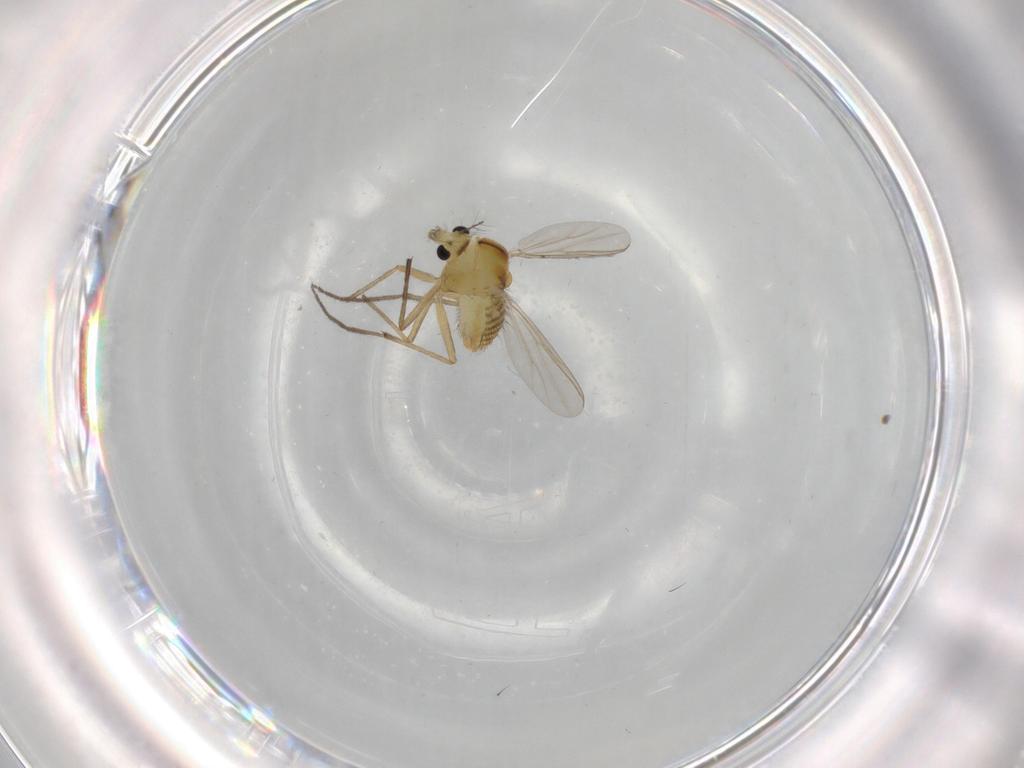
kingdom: Animalia
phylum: Arthropoda
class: Insecta
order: Diptera
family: Chironomidae
